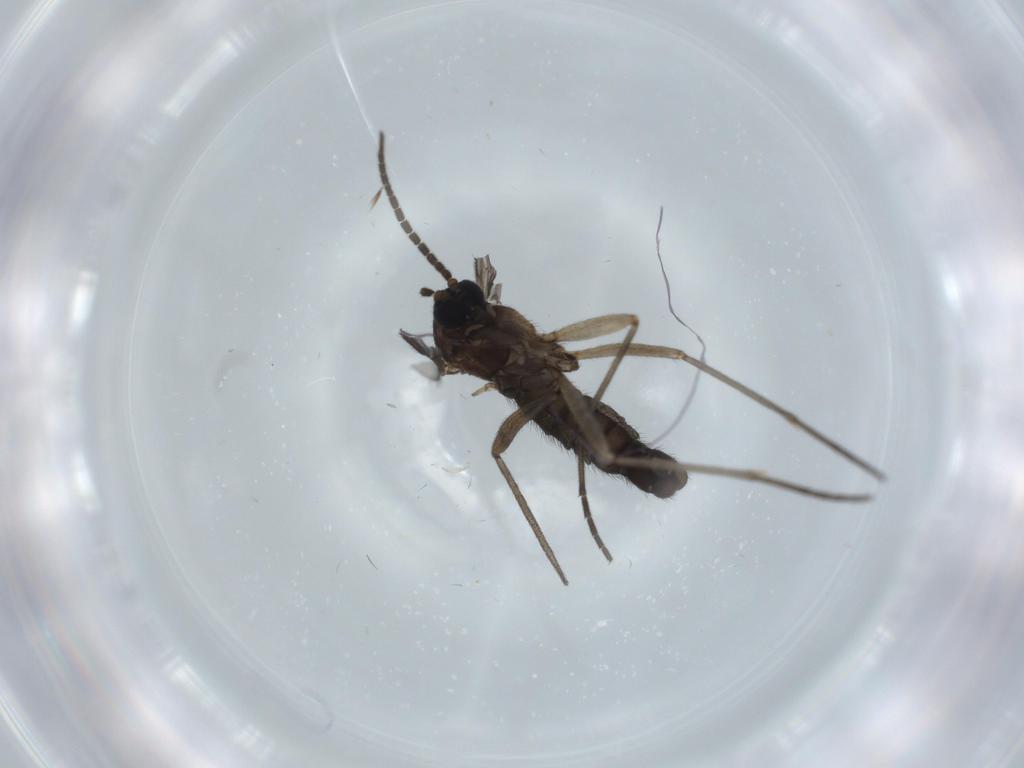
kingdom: Animalia
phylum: Arthropoda
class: Insecta
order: Diptera
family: Sciaridae
